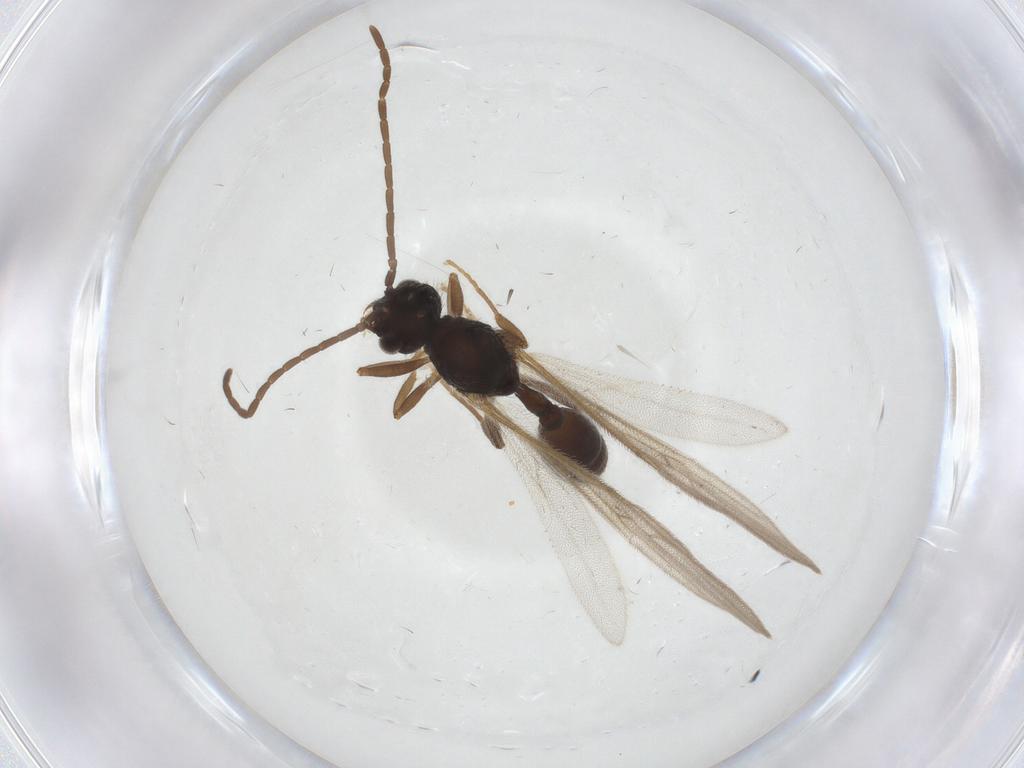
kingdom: Animalia
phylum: Arthropoda
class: Insecta
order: Hymenoptera
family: Formicidae
